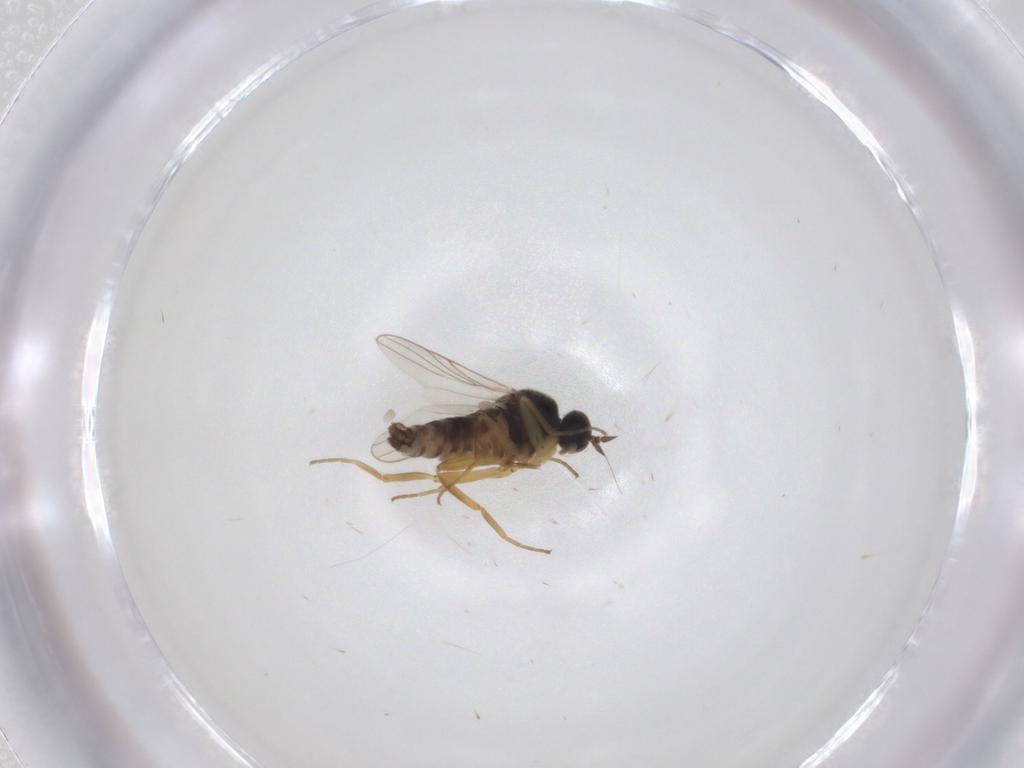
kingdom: Animalia
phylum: Arthropoda
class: Insecta
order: Diptera
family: Hybotidae
